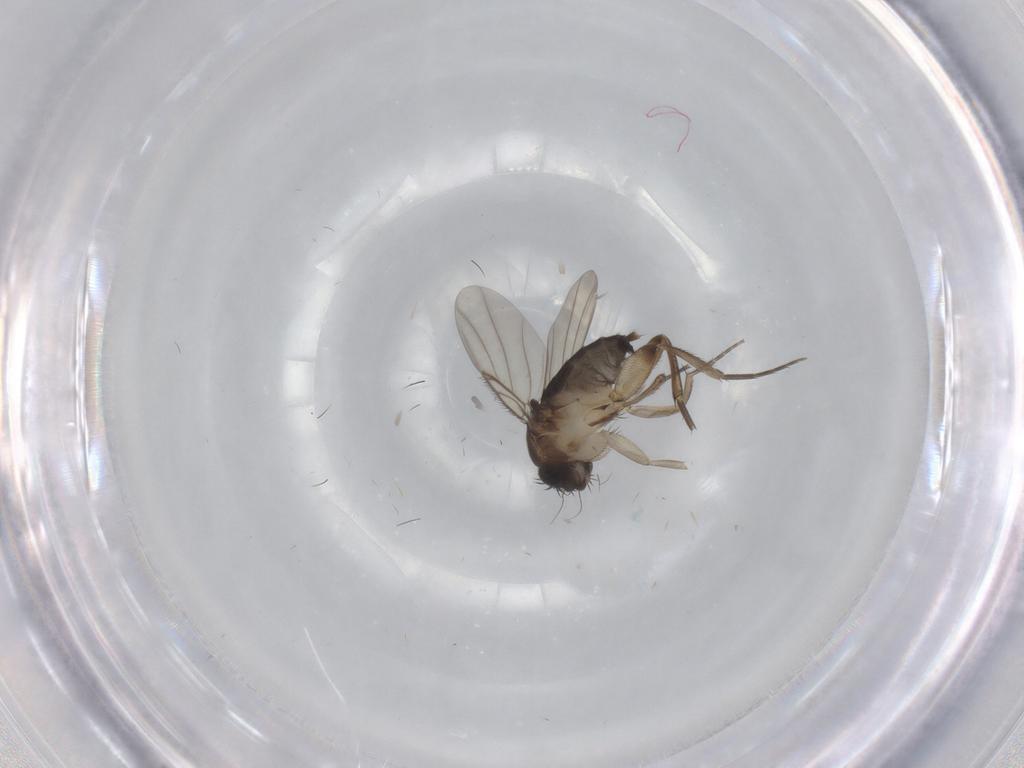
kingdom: Animalia
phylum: Arthropoda
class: Insecta
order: Diptera
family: Phoridae
